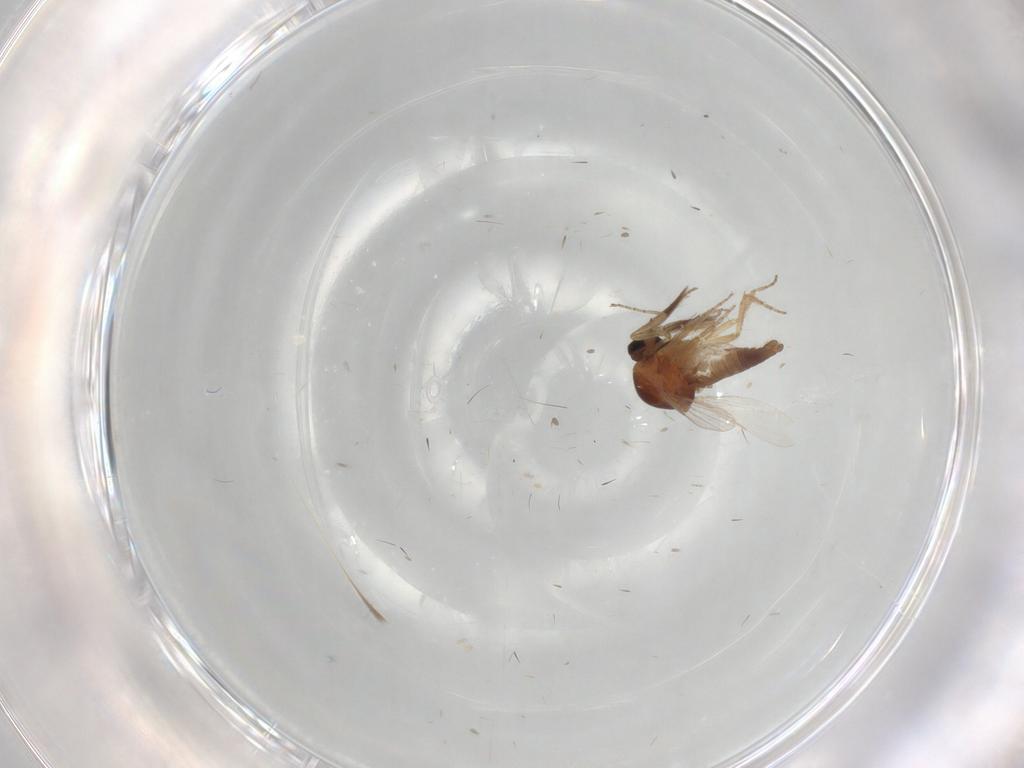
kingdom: Animalia
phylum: Arthropoda
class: Insecta
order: Diptera
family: Ceratopogonidae
